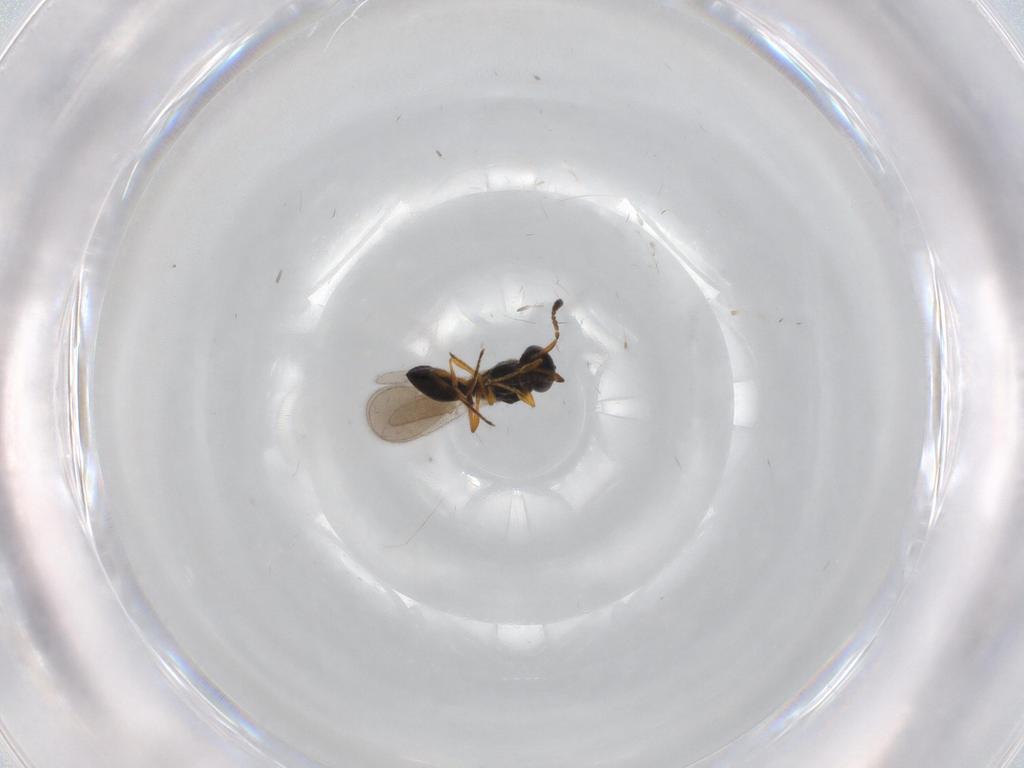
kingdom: Animalia
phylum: Arthropoda
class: Insecta
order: Hymenoptera
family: Platygastridae
